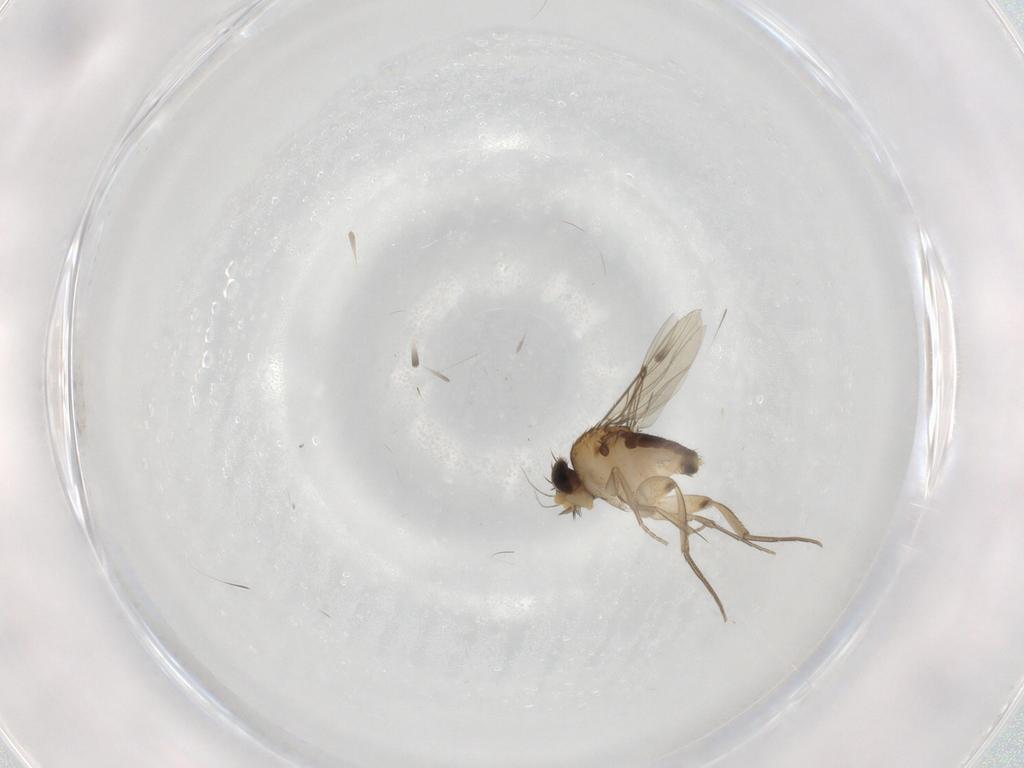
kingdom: Animalia
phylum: Arthropoda
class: Insecta
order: Diptera
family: Phoridae
